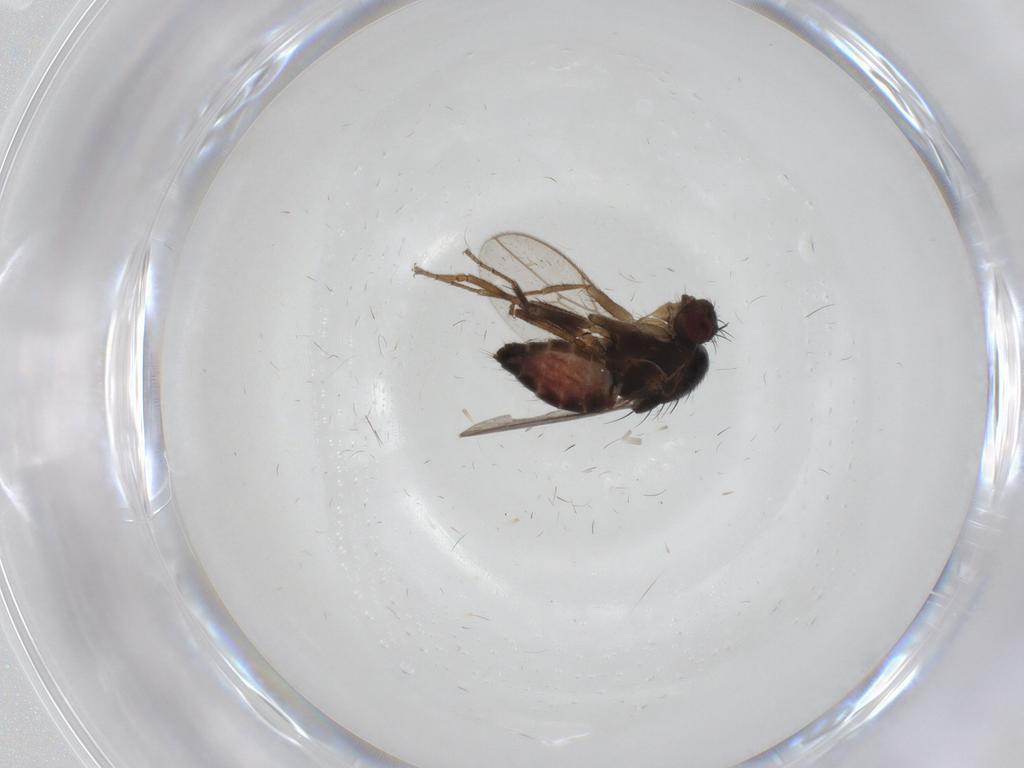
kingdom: Animalia
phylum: Arthropoda
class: Insecta
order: Diptera
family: Sphaeroceridae
